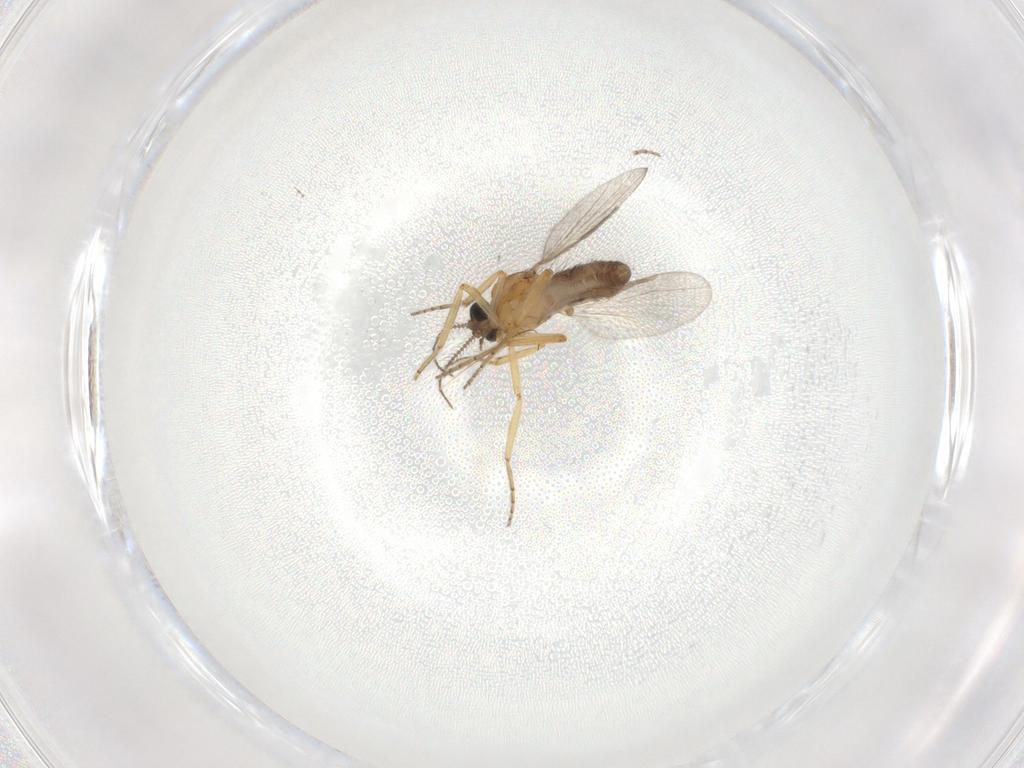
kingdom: Animalia
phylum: Arthropoda
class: Insecta
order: Diptera
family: Ceratopogonidae
